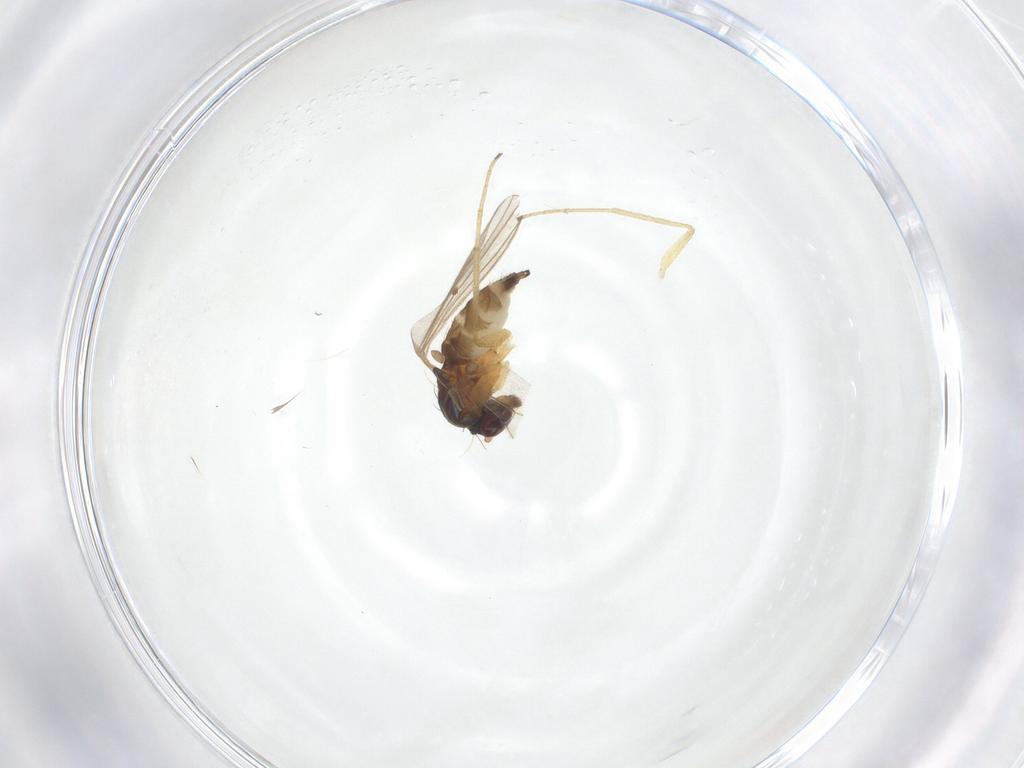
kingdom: Animalia
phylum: Arthropoda
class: Insecta
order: Diptera
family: Dolichopodidae
